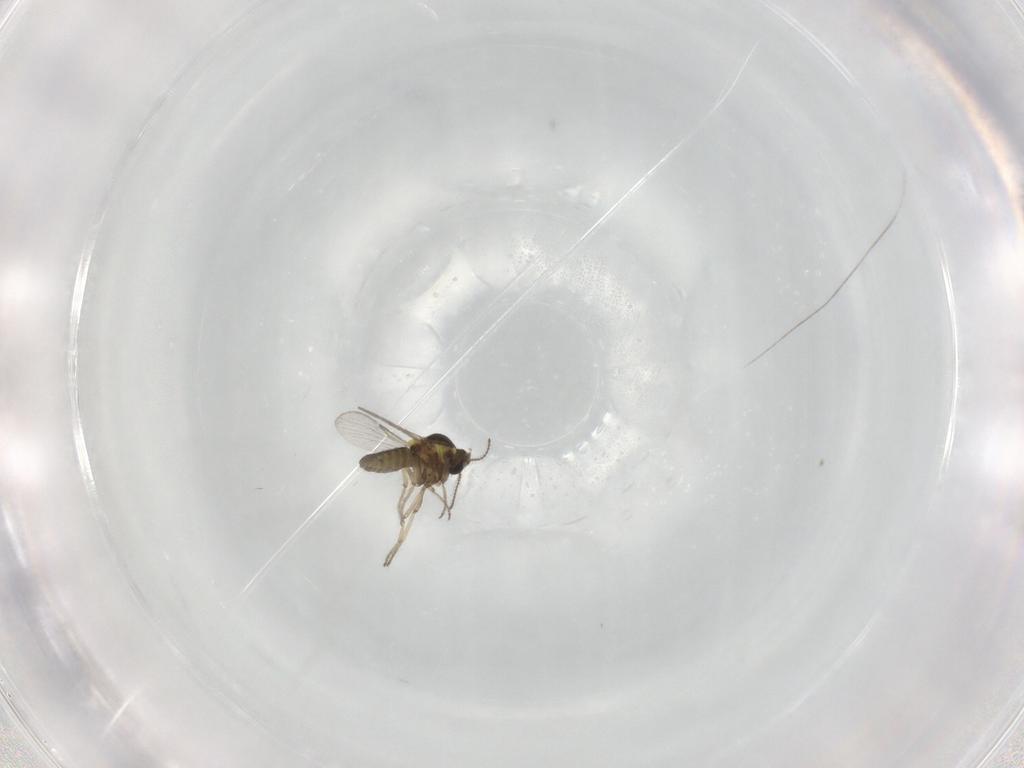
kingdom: Animalia
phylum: Arthropoda
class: Insecta
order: Diptera
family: Ceratopogonidae
